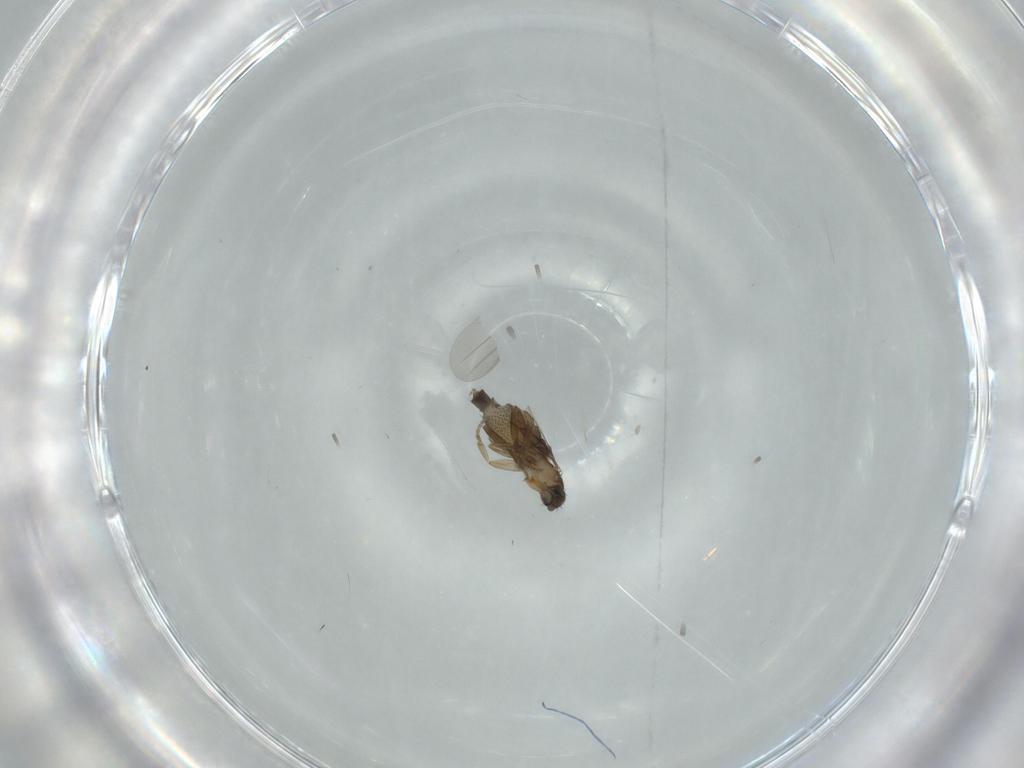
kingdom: Animalia
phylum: Arthropoda
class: Insecta
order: Diptera
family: Phoridae
